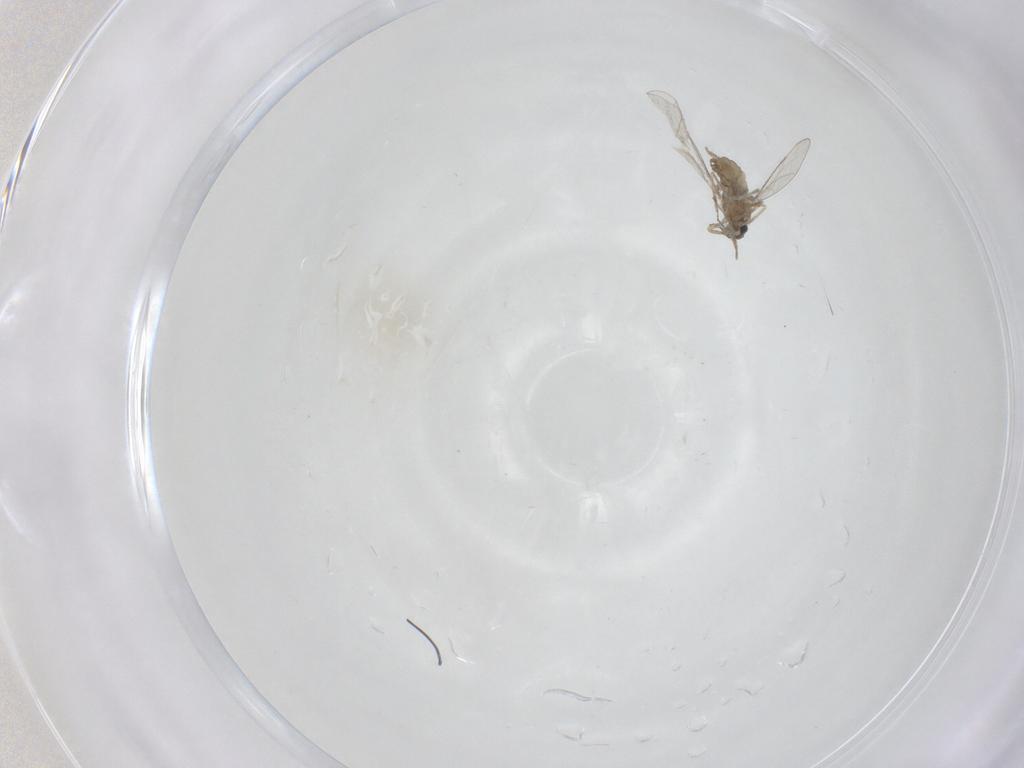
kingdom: Animalia
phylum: Arthropoda
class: Insecta
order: Diptera
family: Cecidomyiidae
